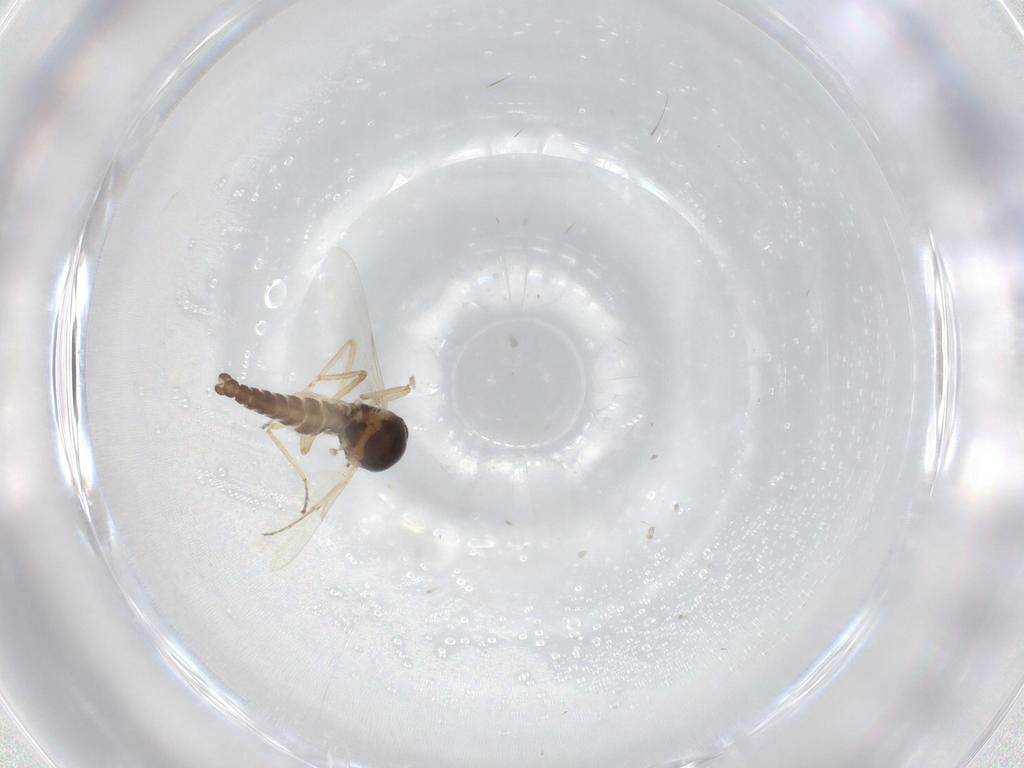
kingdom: Animalia
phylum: Arthropoda
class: Insecta
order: Diptera
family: Ceratopogonidae
